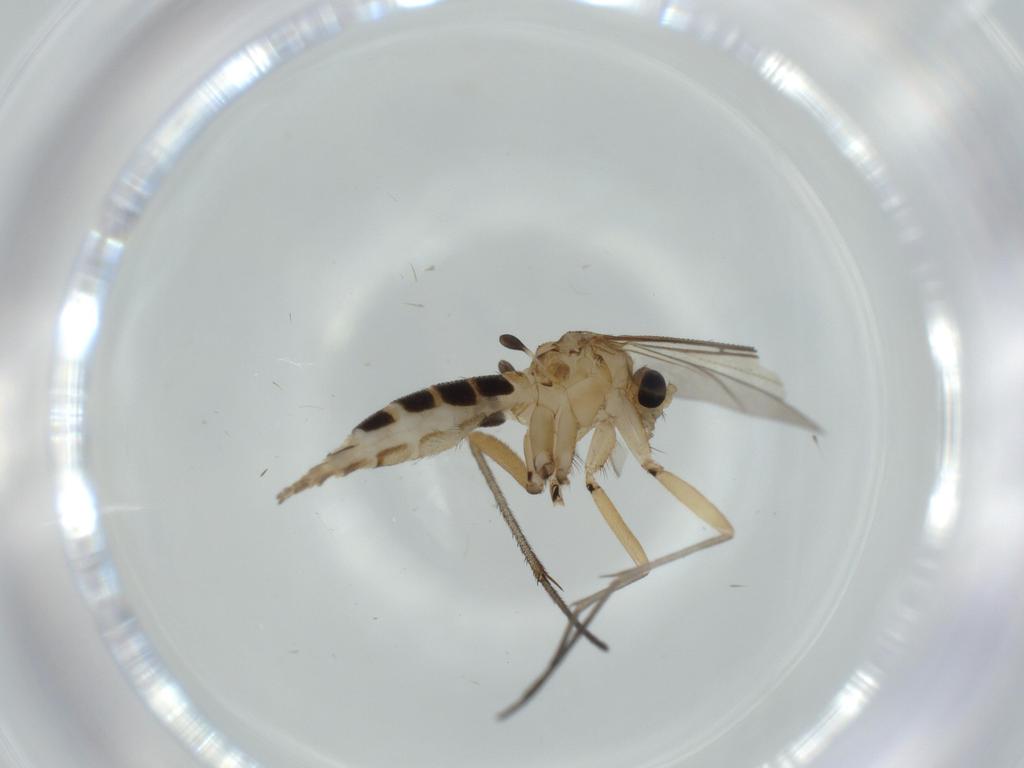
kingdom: Animalia
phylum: Arthropoda
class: Insecta
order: Diptera
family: Sciaridae
